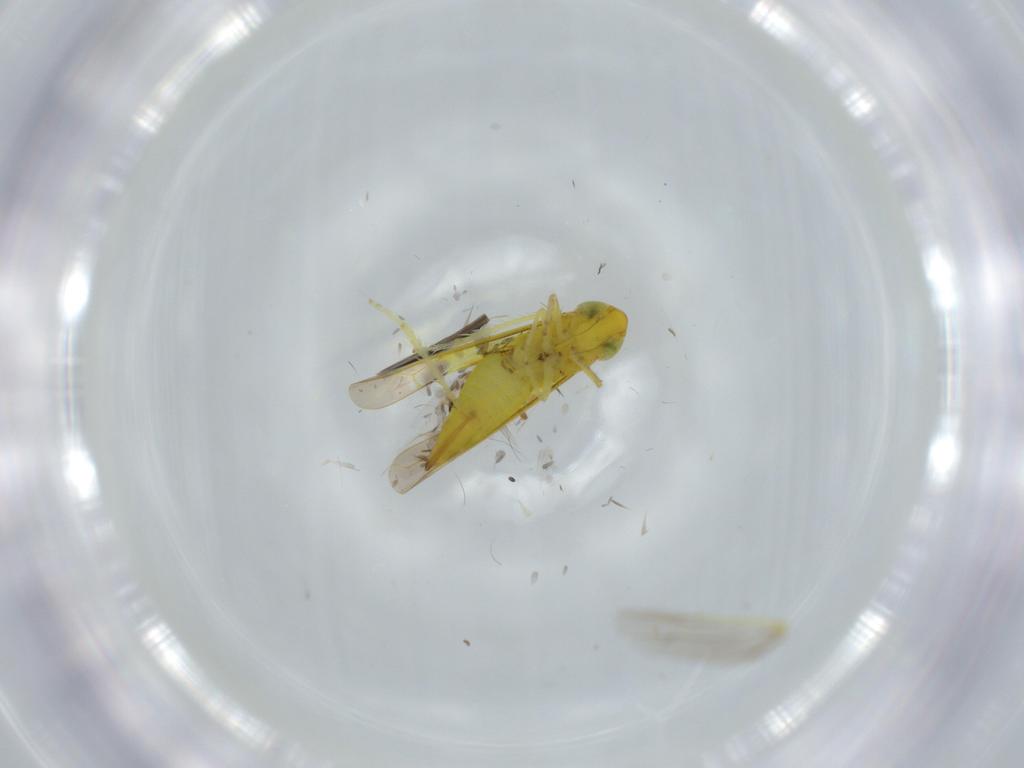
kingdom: Animalia
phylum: Arthropoda
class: Insecta
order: Hemiptera
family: Cicadellidae
